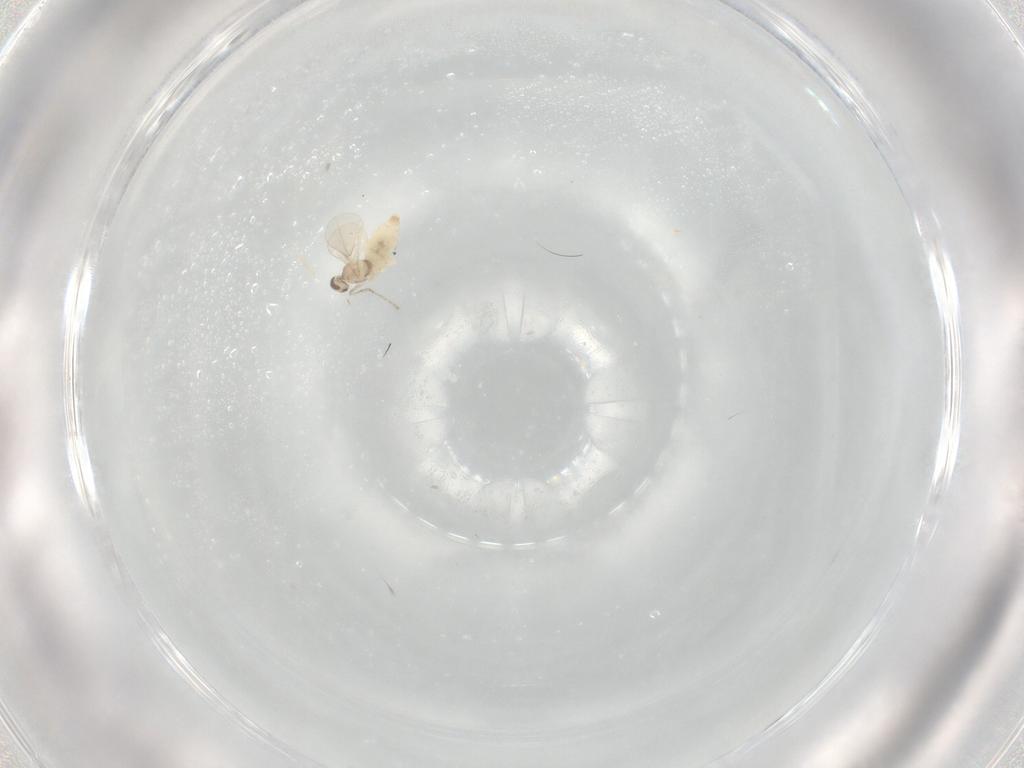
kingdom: Animalia
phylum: Arthropoda
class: Insecta
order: Diptera
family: Cecidomyiidae
